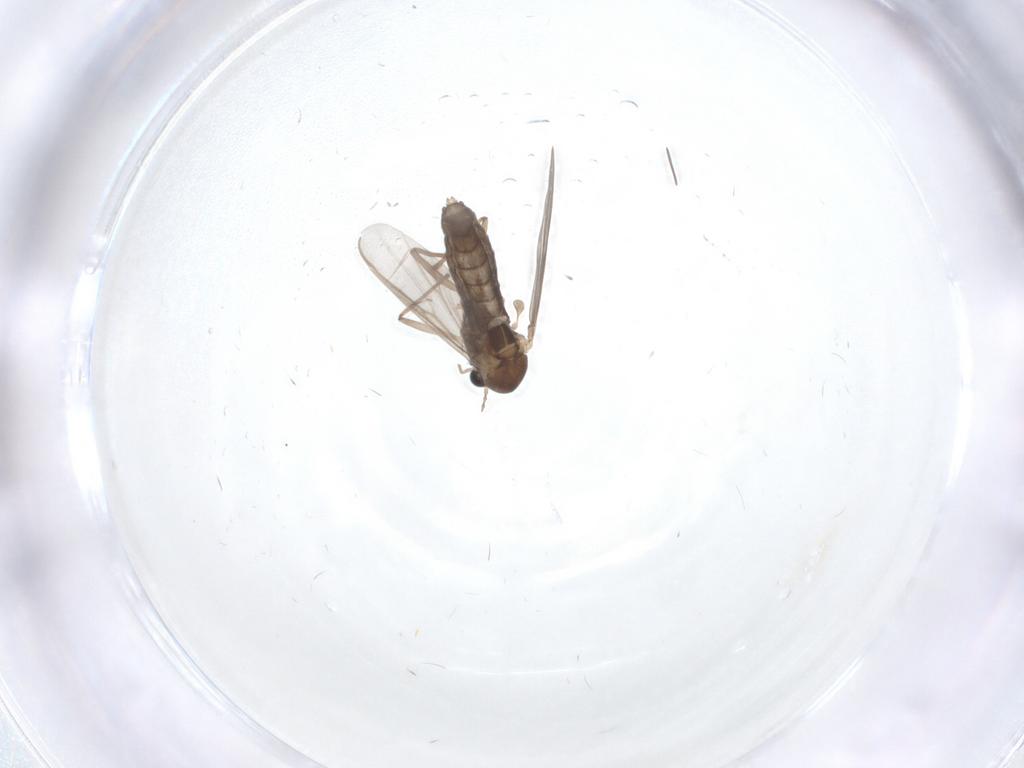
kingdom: Animalia
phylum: Arthropoda
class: Insecta
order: Diptera
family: Chironomidae
